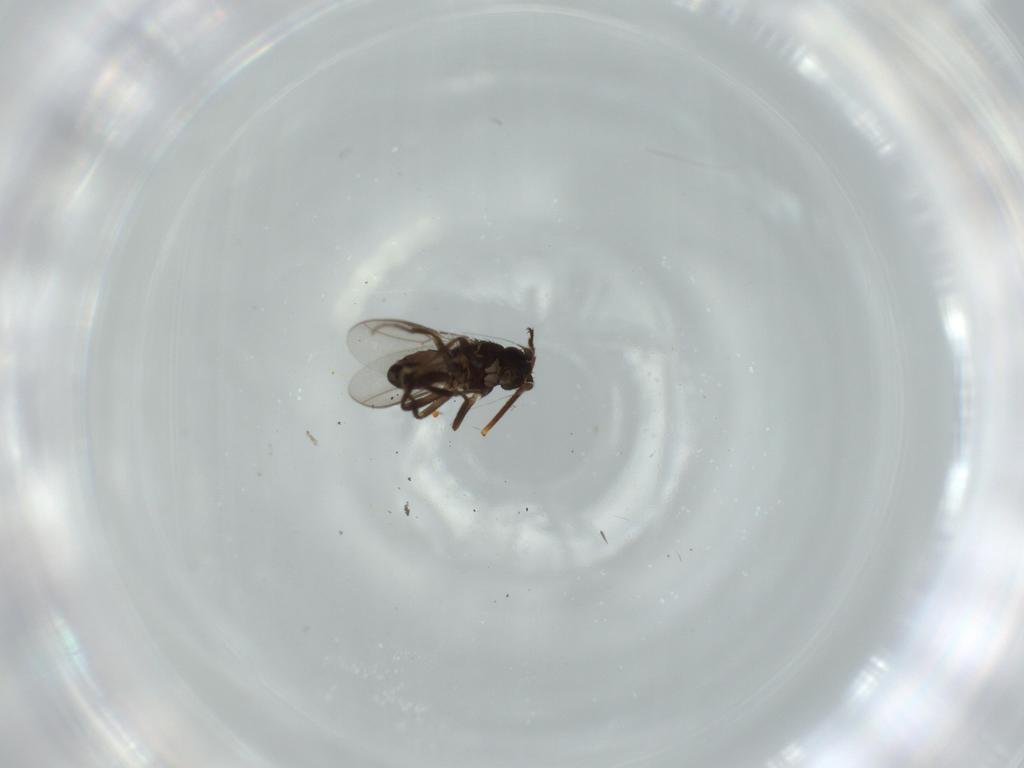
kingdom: Animalia
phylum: Arthropoda
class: Insecta
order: Diptera
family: Sphaeroceridae
